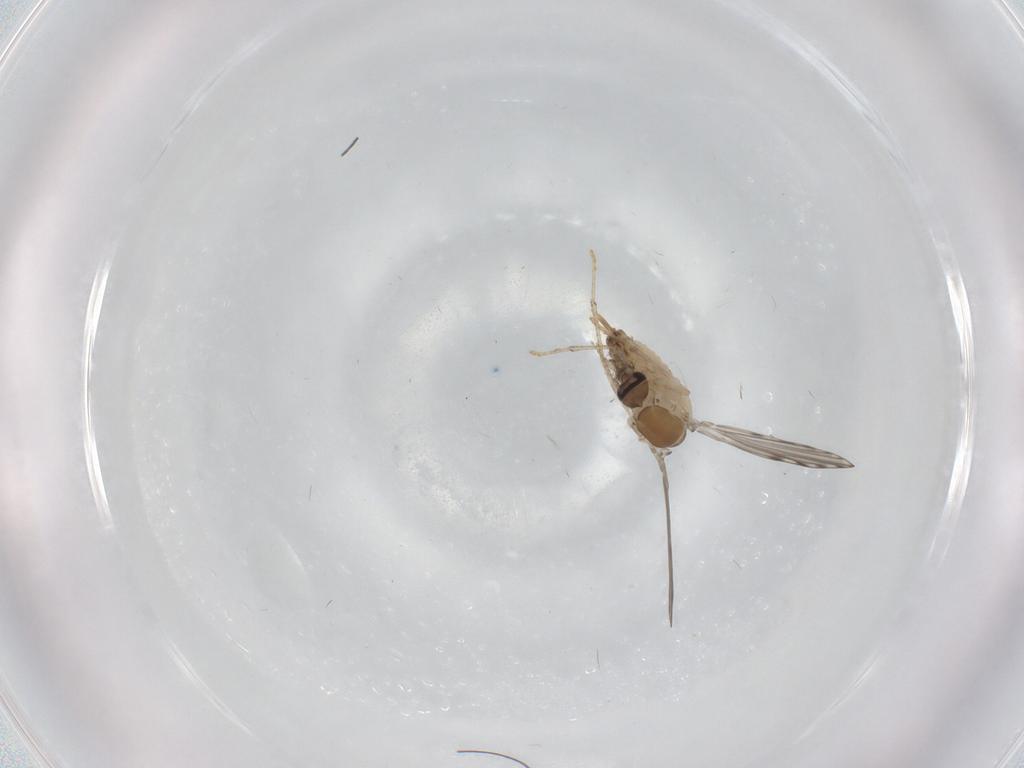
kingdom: Animalia
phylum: Arthropoda
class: Insecta
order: Diptera
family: Psychodidae
